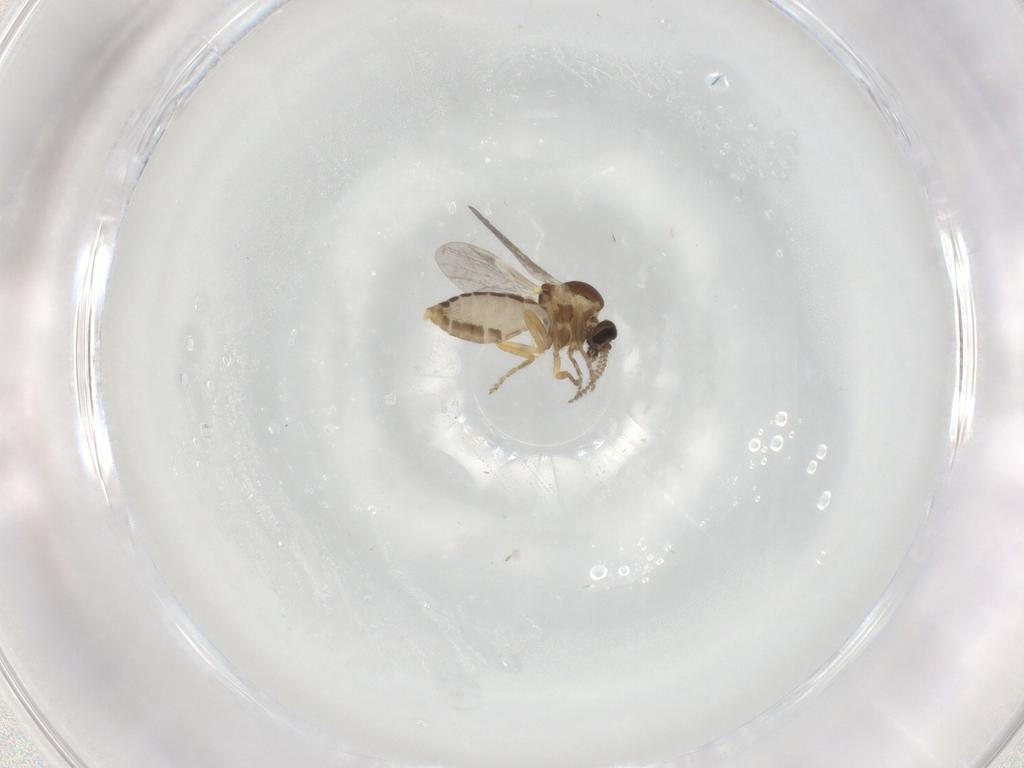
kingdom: Animalia
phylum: Arthropoda
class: Insecta
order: Diptera
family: Ceratopogonidae
